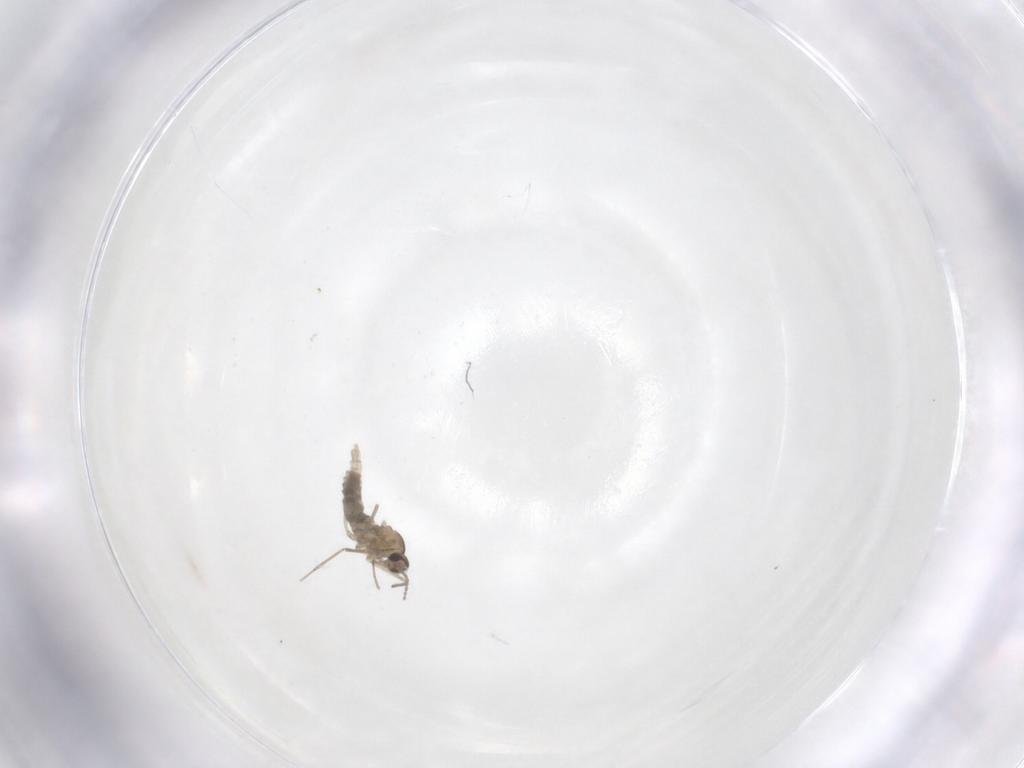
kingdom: Animalia
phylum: Arthropoda
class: Insecta
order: Diptera
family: Cecidomyiidae
